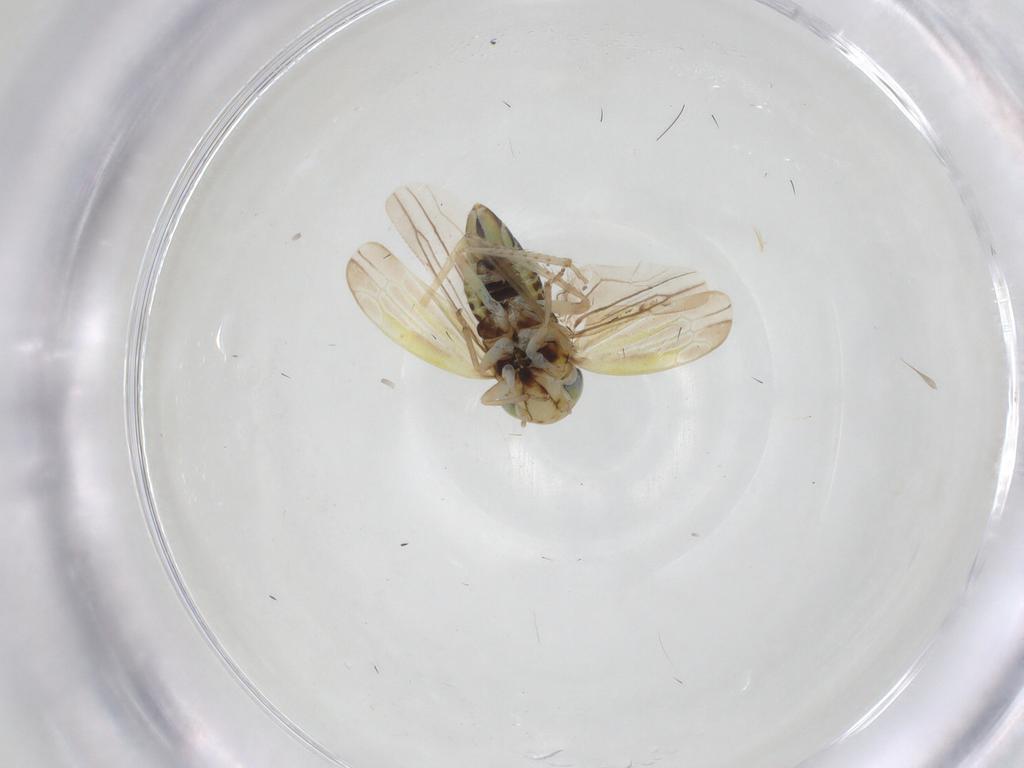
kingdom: Animalia
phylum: Arthropoda
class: Insecta
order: Hemiptera
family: Cicadellidae
